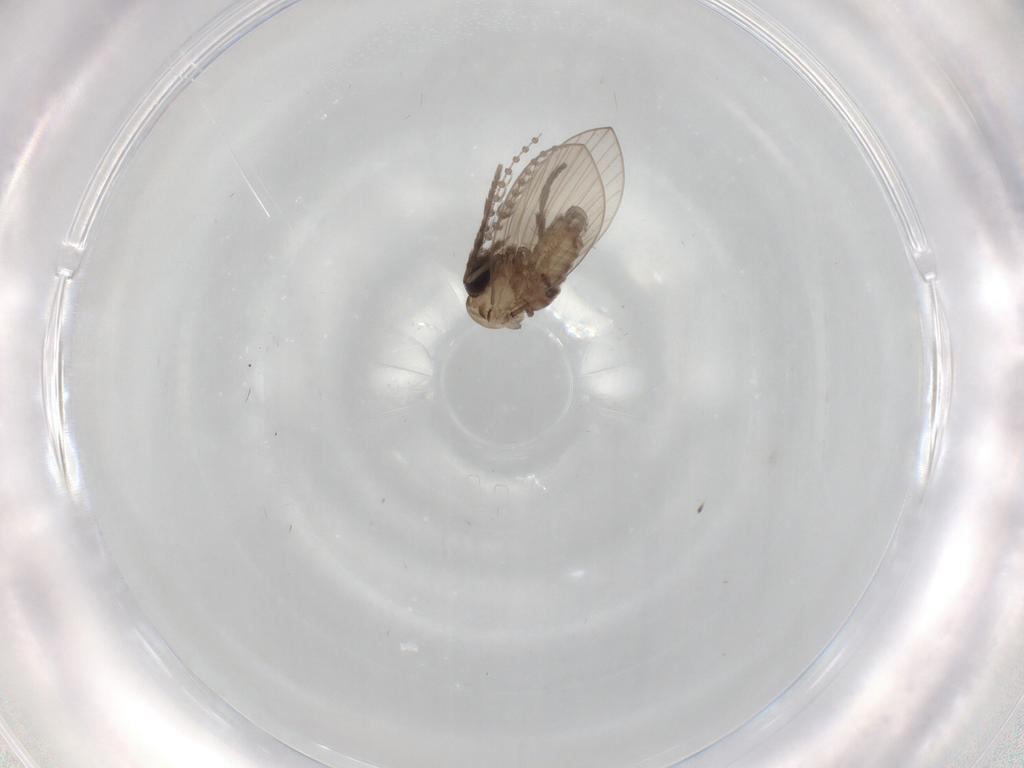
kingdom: Animalia
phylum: Arthropoda
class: Insecta
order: Diptera
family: Psychodidae
